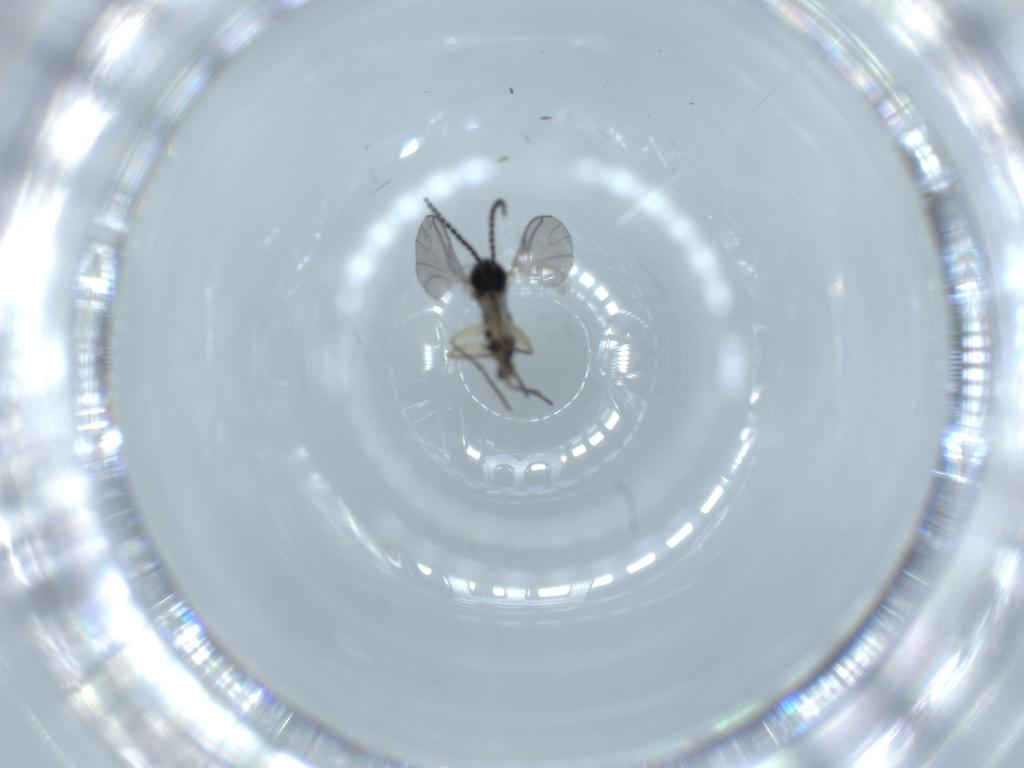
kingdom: Animalia
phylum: Arthropoda
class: Insecta
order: Diptera
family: Sciaridae
